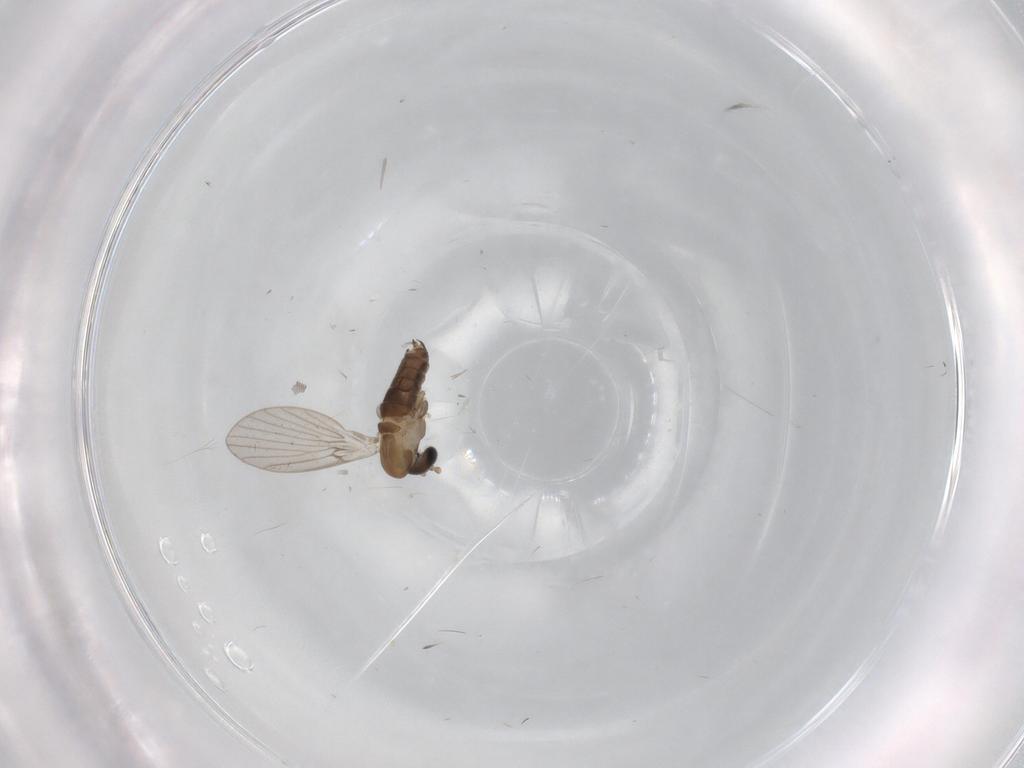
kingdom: Animalia
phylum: Arthropoda
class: Insecta
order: Diptera
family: Psychodidae
